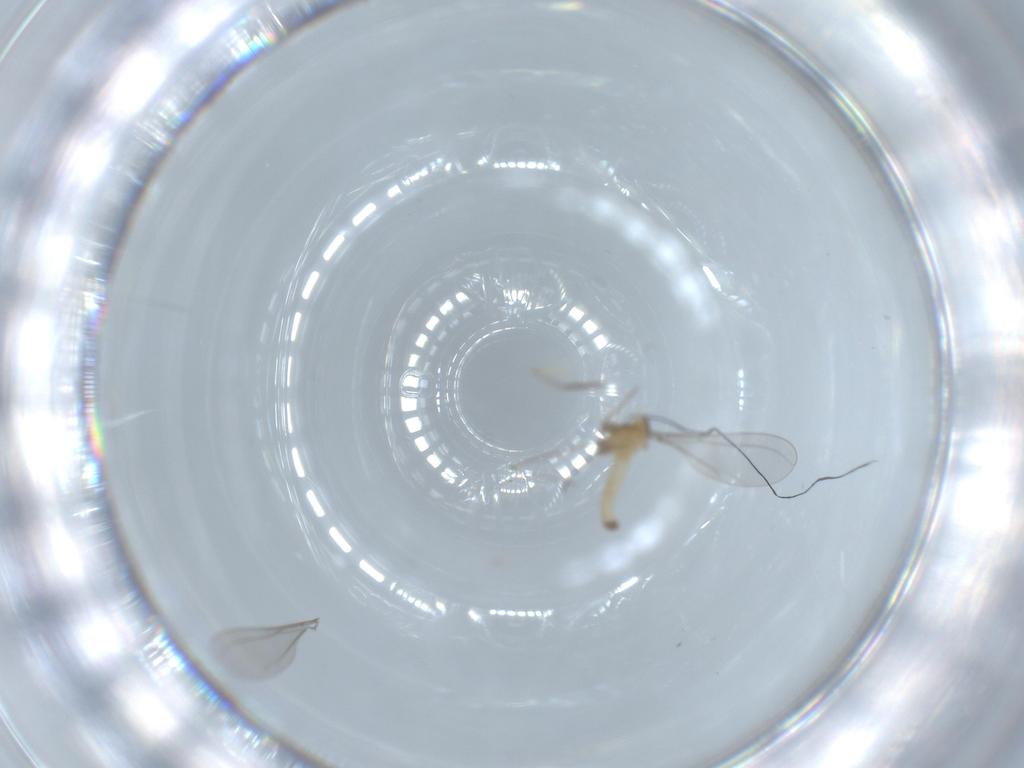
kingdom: Animalia
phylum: Arthropoda
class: Insecta
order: Diptera
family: Cecidomyiidae
